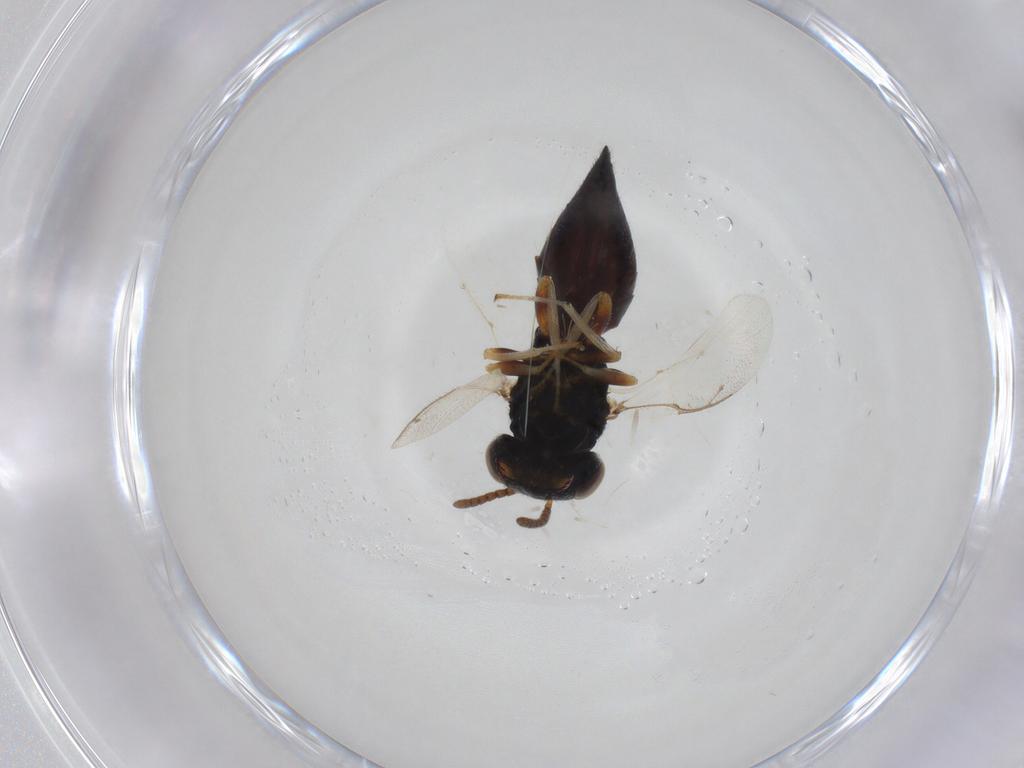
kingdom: Animalia
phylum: Arthropoda
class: Insecta
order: Hymenoptera
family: Pteromalidae
